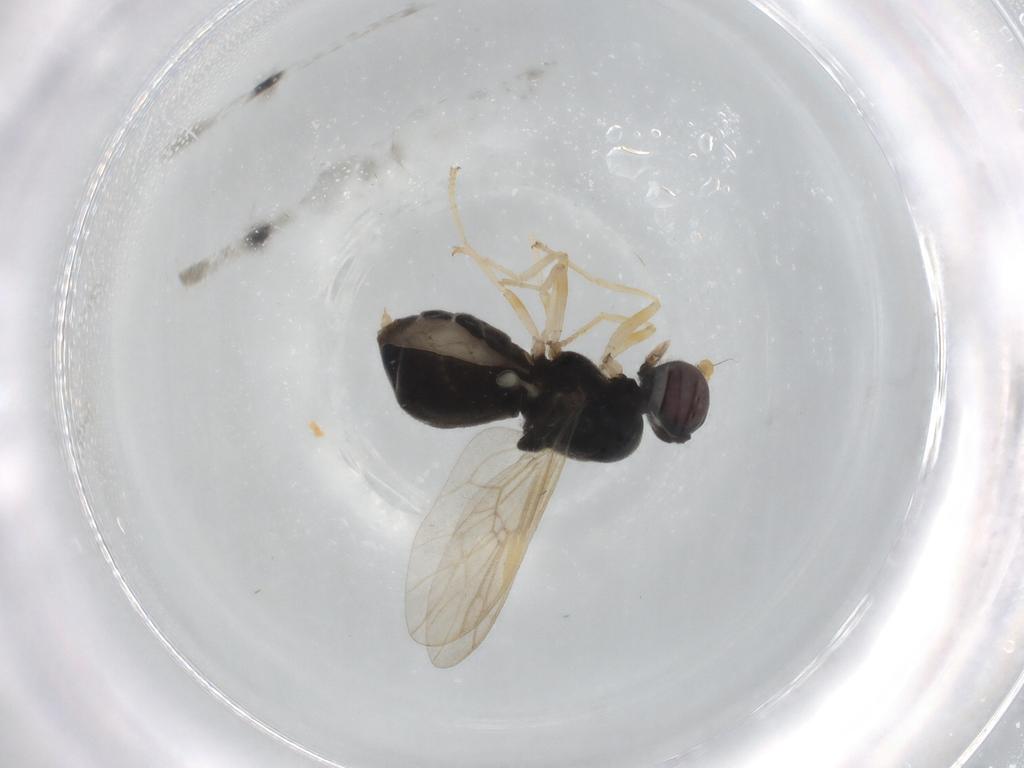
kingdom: Animalia
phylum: Arthropoda
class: Insecta
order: Diptera
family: Stratiomyidae
